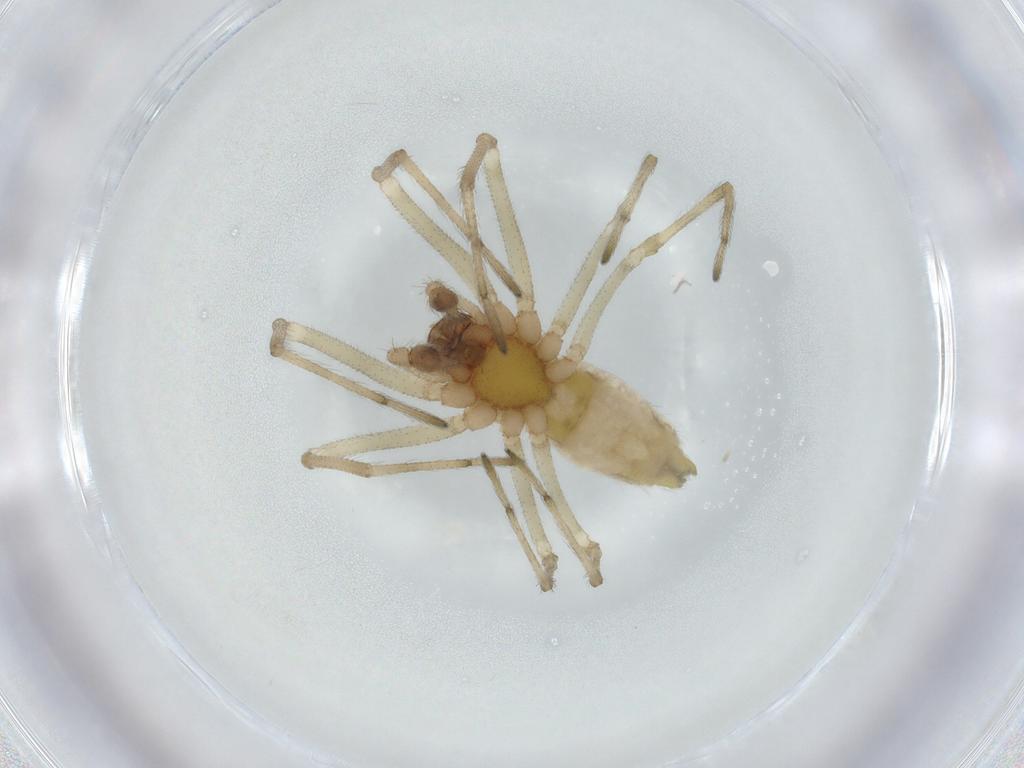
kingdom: Animalia
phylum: Arthropoda
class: Arachnida
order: Araneae
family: Dictynidae
